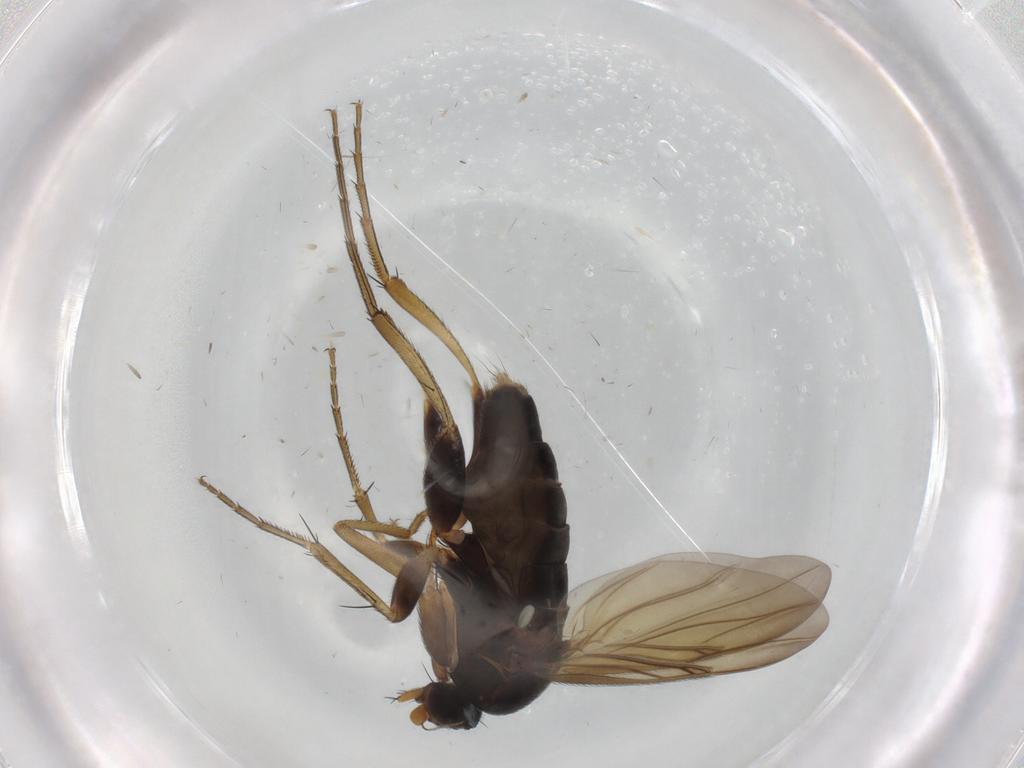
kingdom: Animalia
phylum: Arthropoda
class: Insecta
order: Diptera
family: Phoridae
